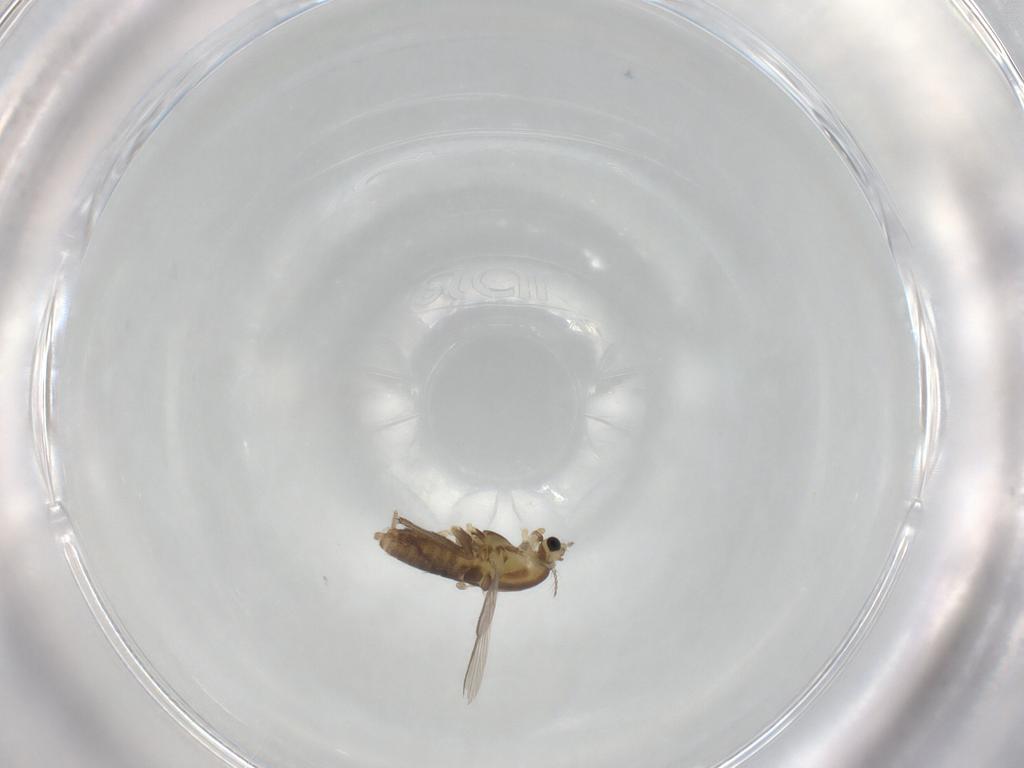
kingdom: Animalia
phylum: Arthropoda
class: Insecta
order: Diptera
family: Chironomidae
